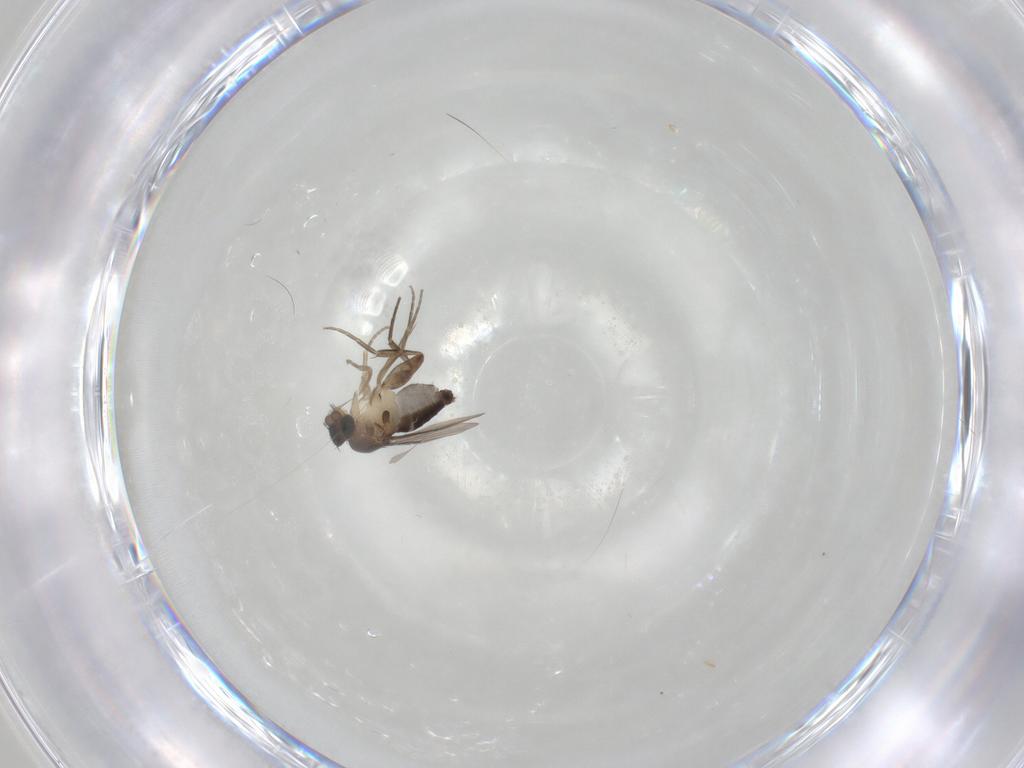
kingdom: Animalia
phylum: Arthropoda
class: Insecta
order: Diptera
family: Phoridae
